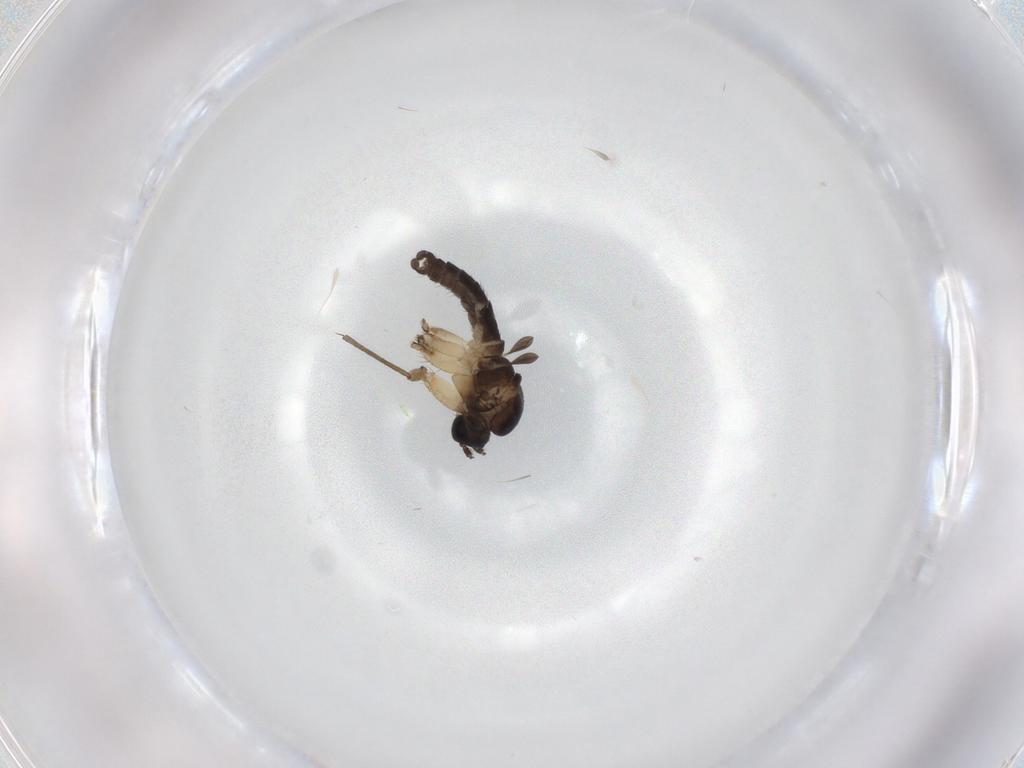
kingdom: Animalia
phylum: Arthropoda
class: Insecta
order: Diptera
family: Sciaridae
